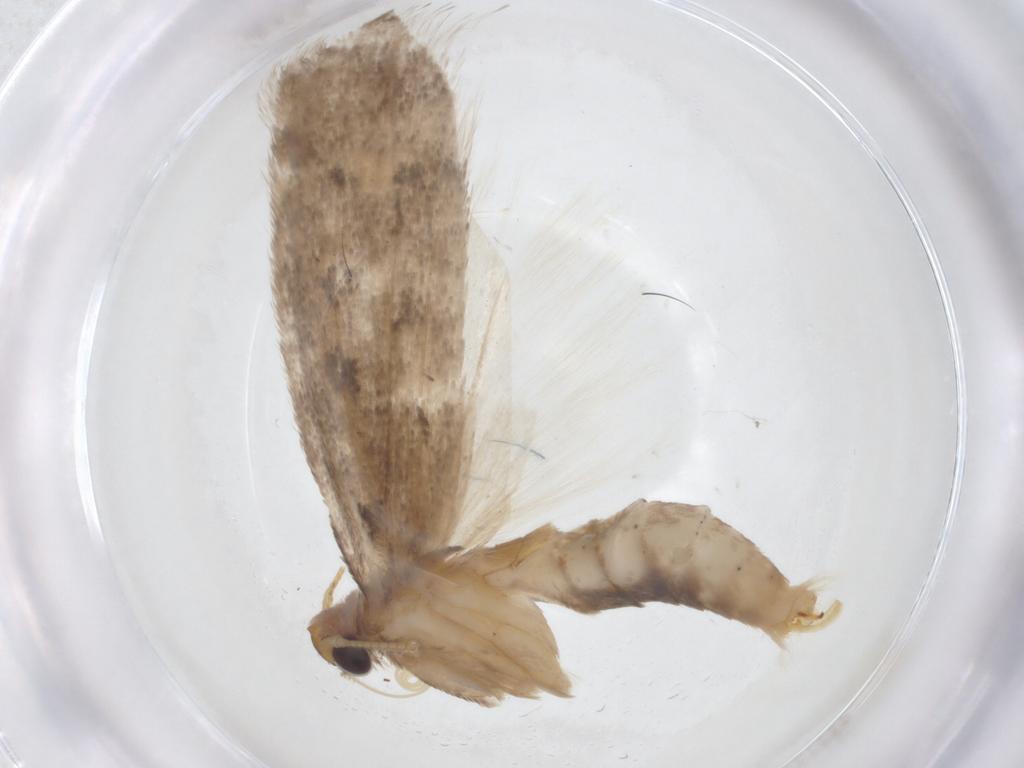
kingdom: Animalia
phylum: Arthropoda
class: Insecta
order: Lepidoptera
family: Carposinidae
